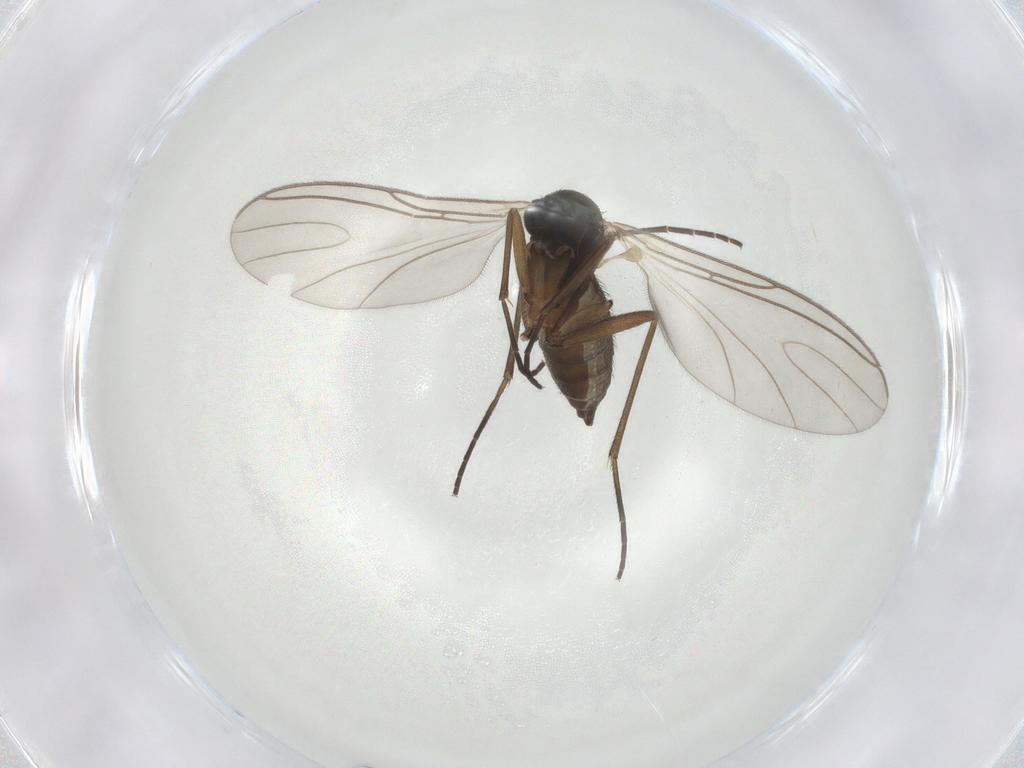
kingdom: Animalia
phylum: Arthropoda
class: Insecta
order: Diptera
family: Sciaridae
